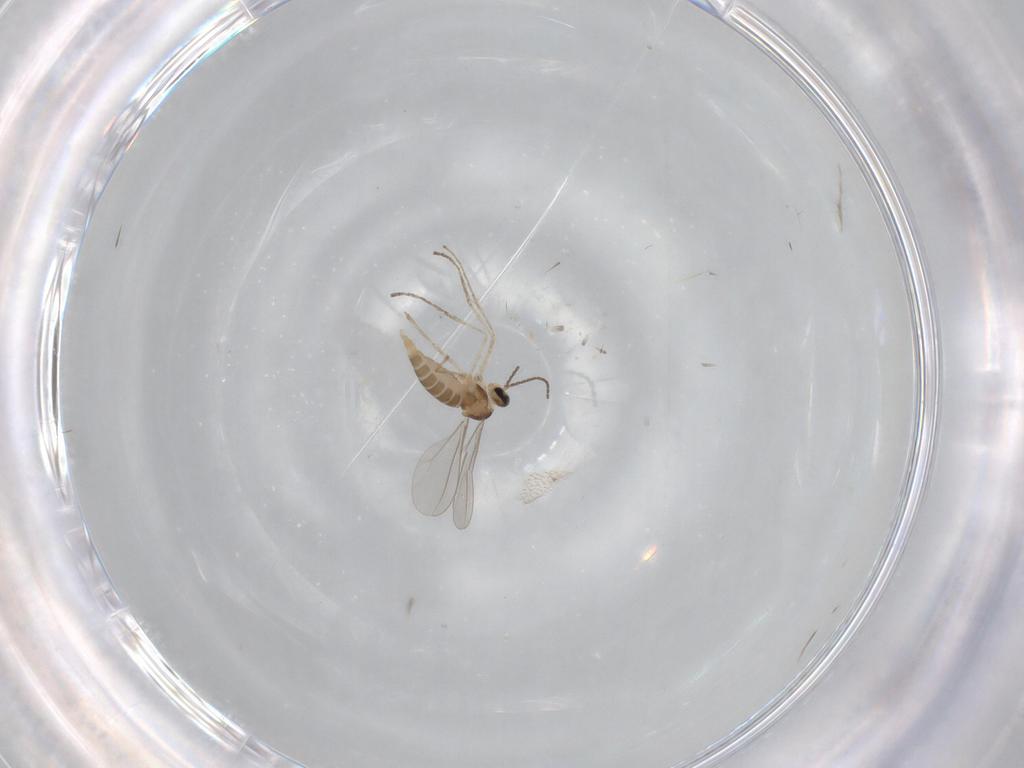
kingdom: Animalia
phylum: Arthropoda
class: Insecta
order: Diptera
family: Cecidomyiidae
